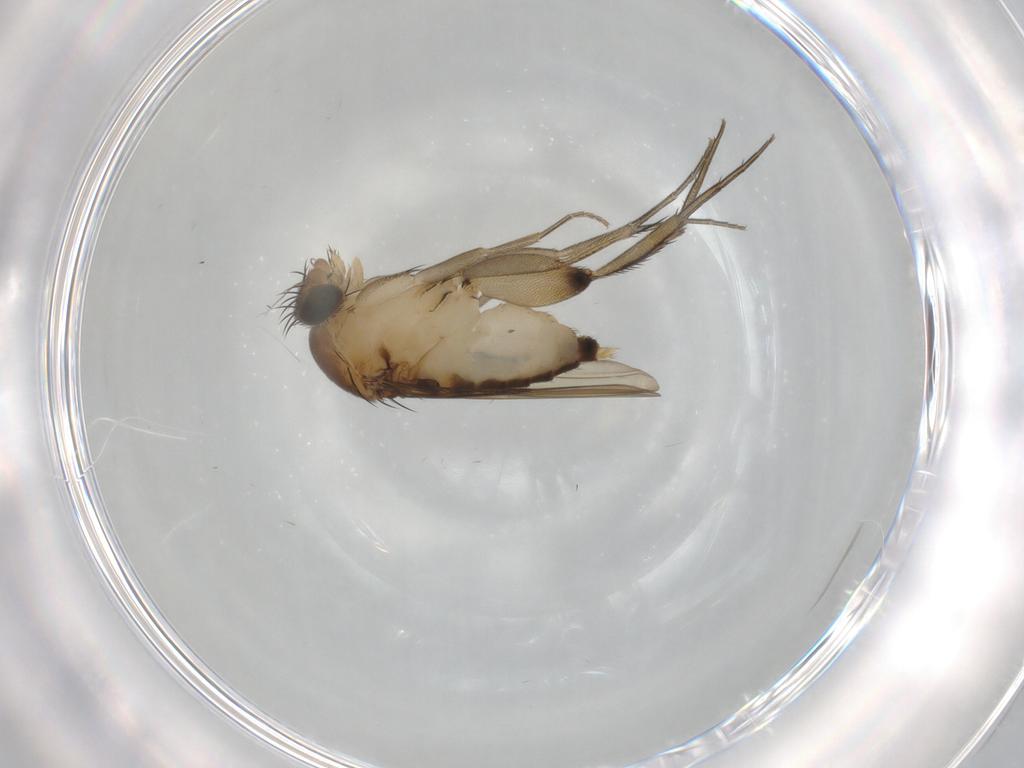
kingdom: Animalia
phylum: Arthropoda
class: Insecta
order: Diptera
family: Phoridae
